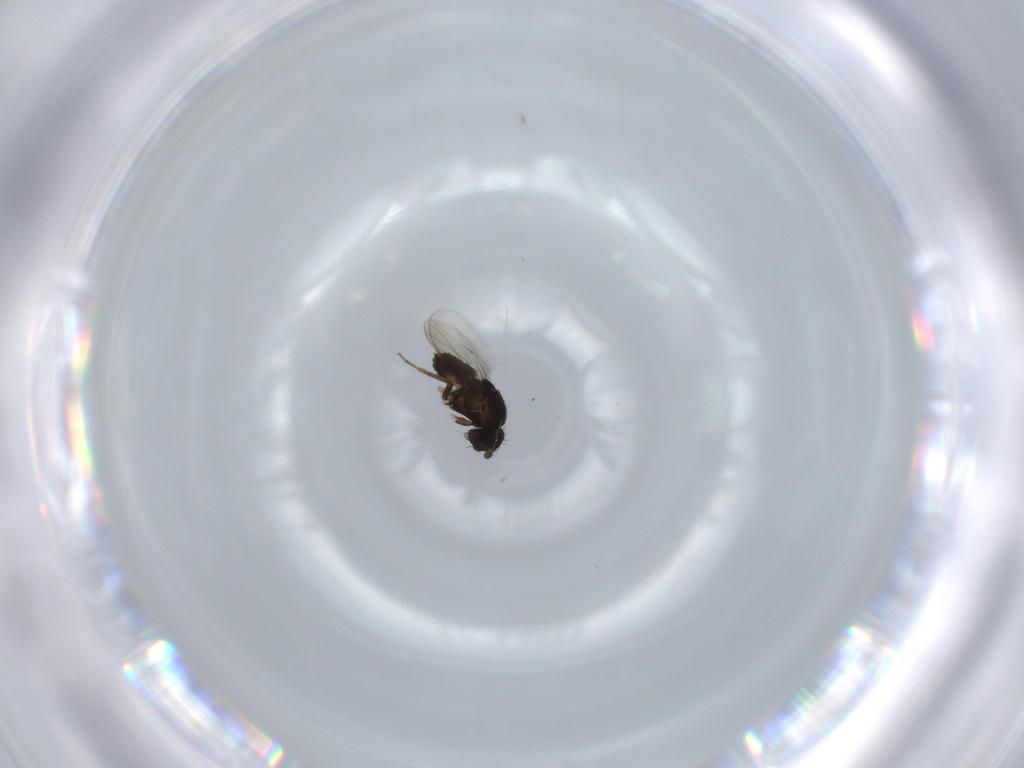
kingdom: Animalia
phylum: Arthropoda
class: Insecta
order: Diptera
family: Sphaeroceridae
